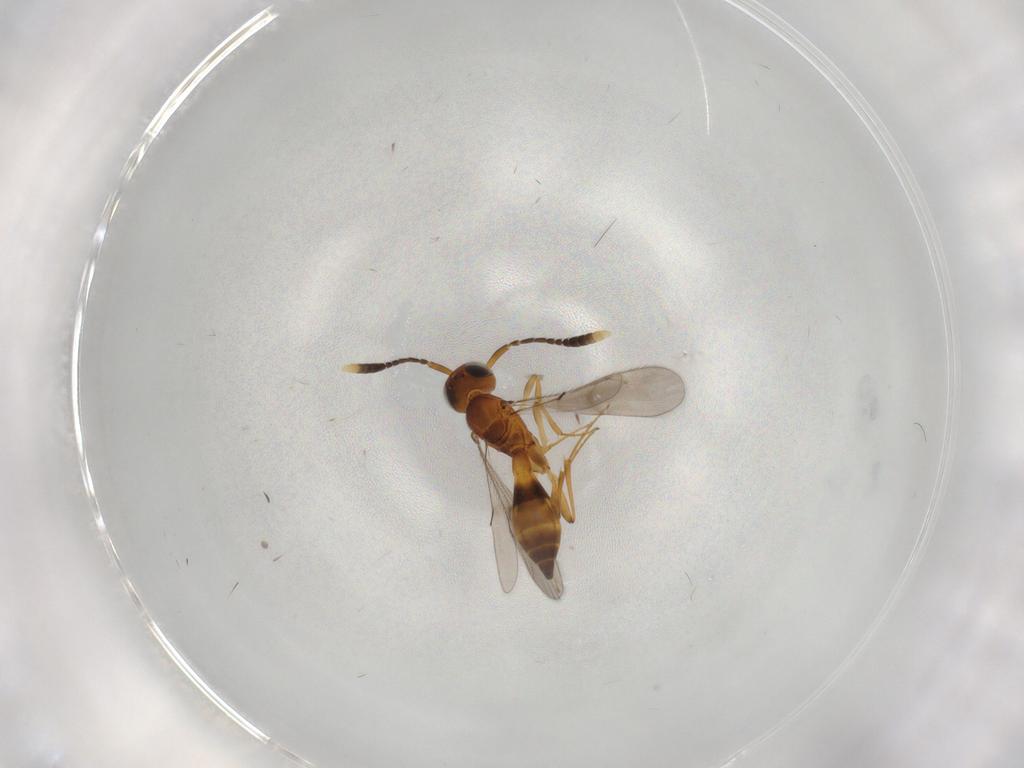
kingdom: Animalia
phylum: Arthropoda
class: Insecta
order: Hymenoptera
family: Scelionidae
